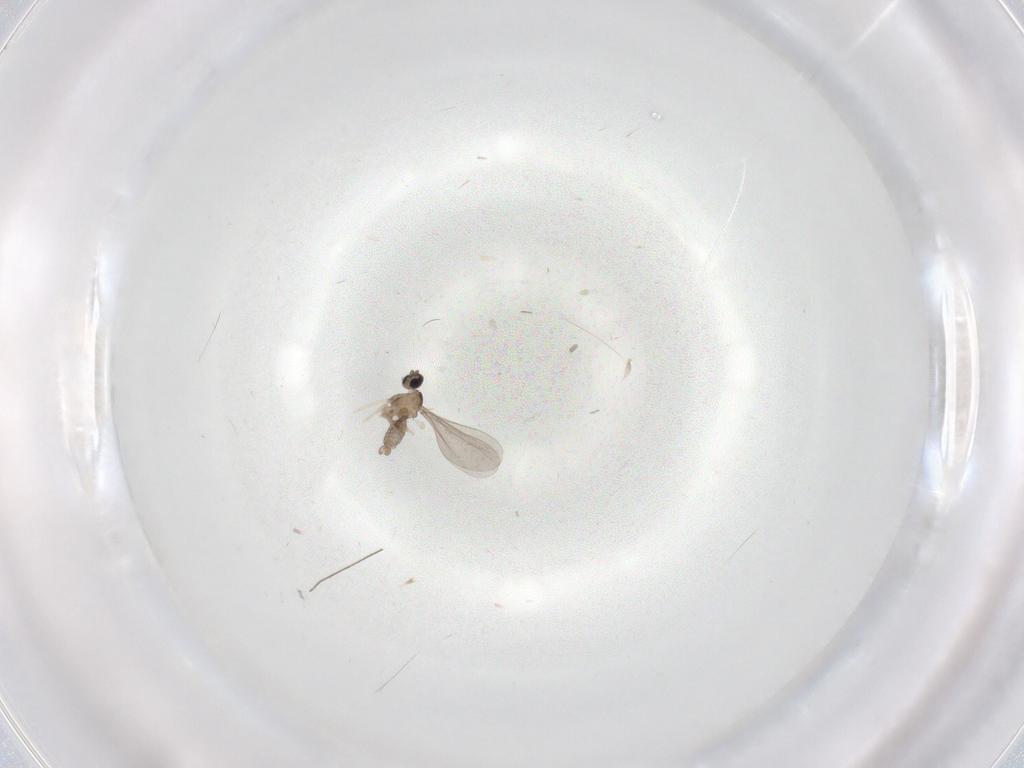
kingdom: Animalia
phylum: Arthropoda
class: Insecta
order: Diptera
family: Chironomidae
